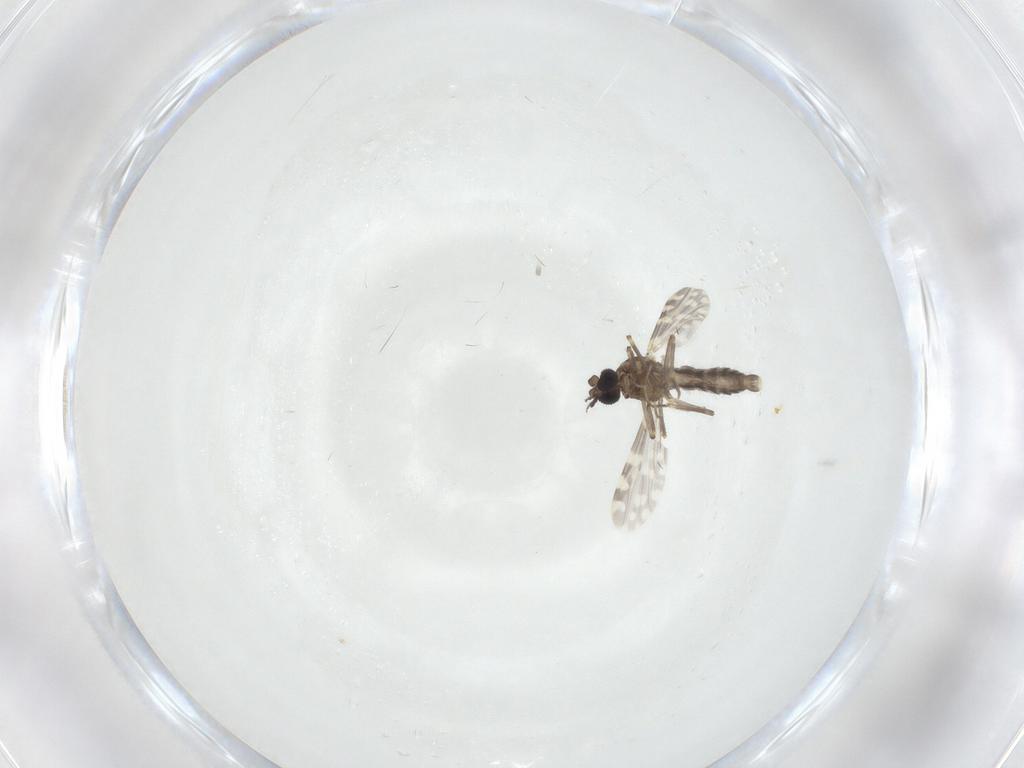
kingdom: Animalia
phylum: Arthropoda
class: Insecta
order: Diptera
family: Ceratopogonidae
